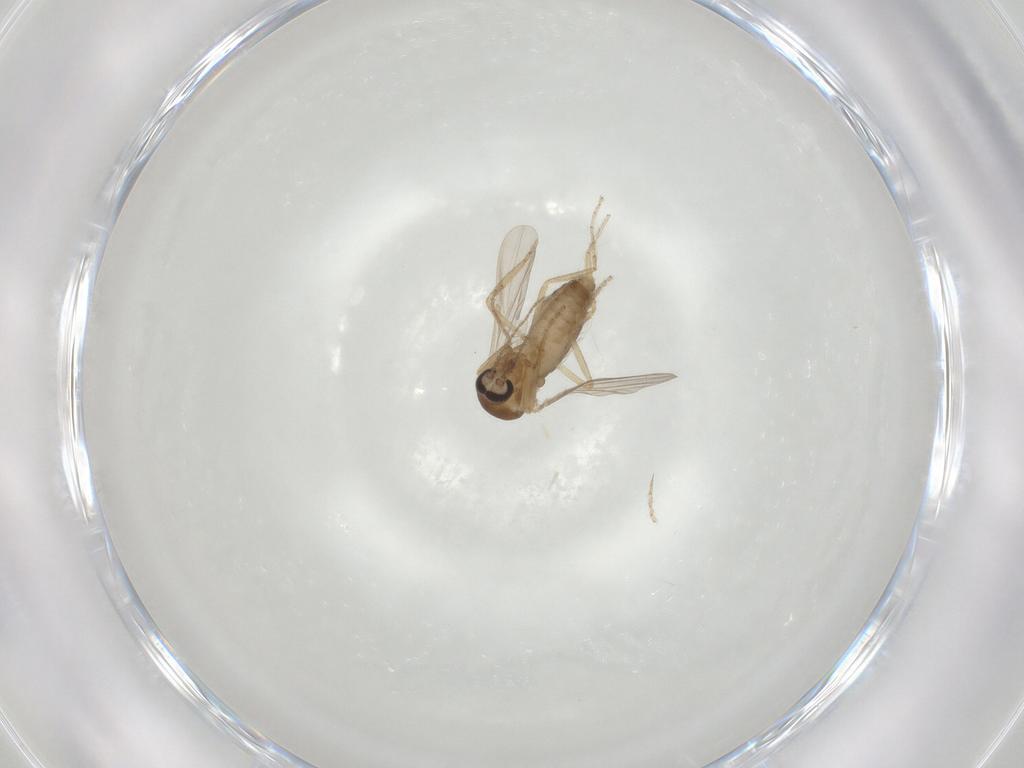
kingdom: Animalia
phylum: Arthropoda
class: Insecta
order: Diptera
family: Ceratopogonidae
